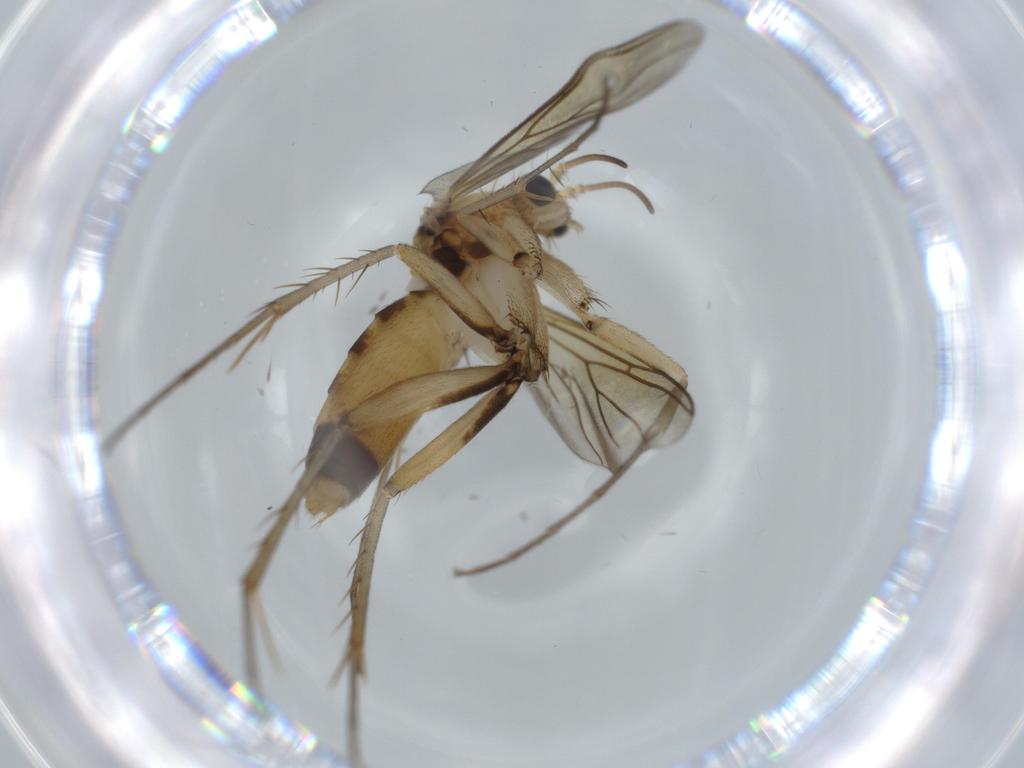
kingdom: Animalia
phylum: Arthropoda
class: Insecta
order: Diptera
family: Mycetophilidae
